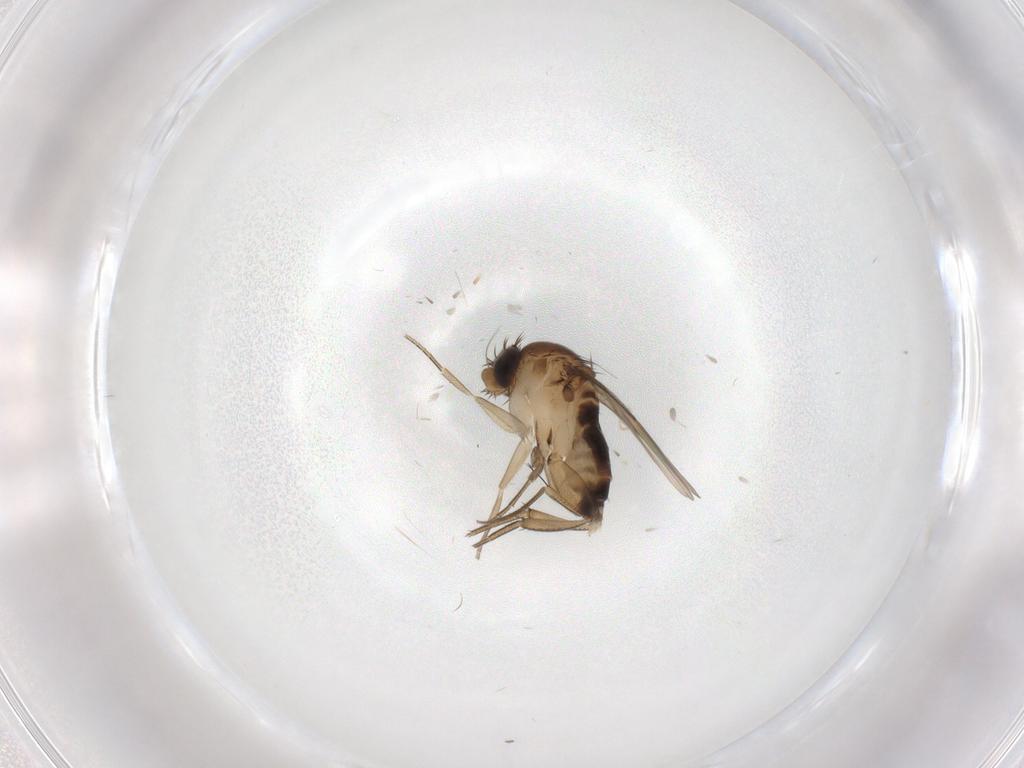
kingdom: Animalia
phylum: Arthropoda
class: Insecta
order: Diptera
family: Phoridae
